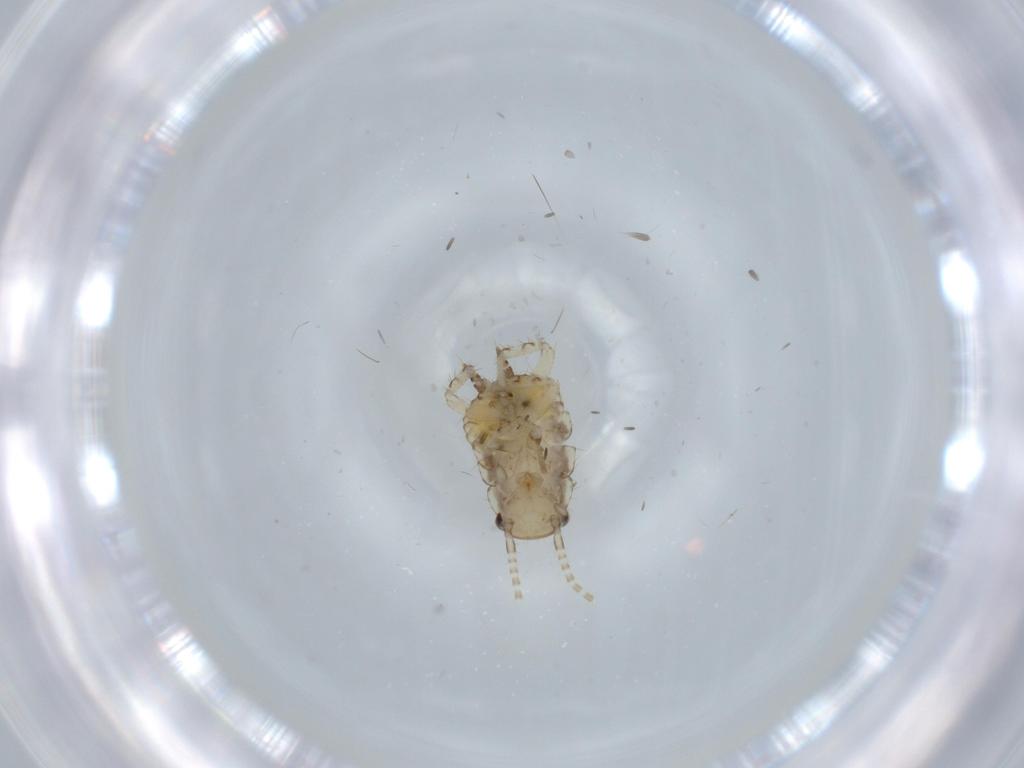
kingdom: Animalia
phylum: Arthropoda
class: Insecta
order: Blattodea
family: Ectobiidae
